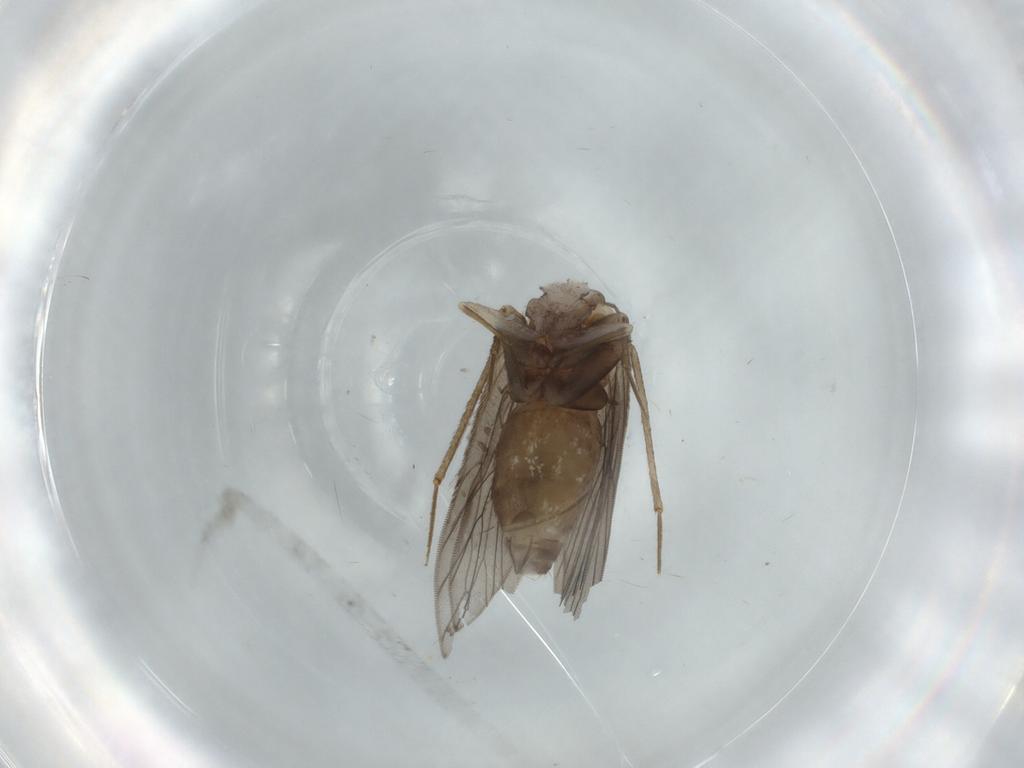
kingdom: Animalia
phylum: Arthropoda
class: Insecta
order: Psocodea
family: Lepidopsocidae
